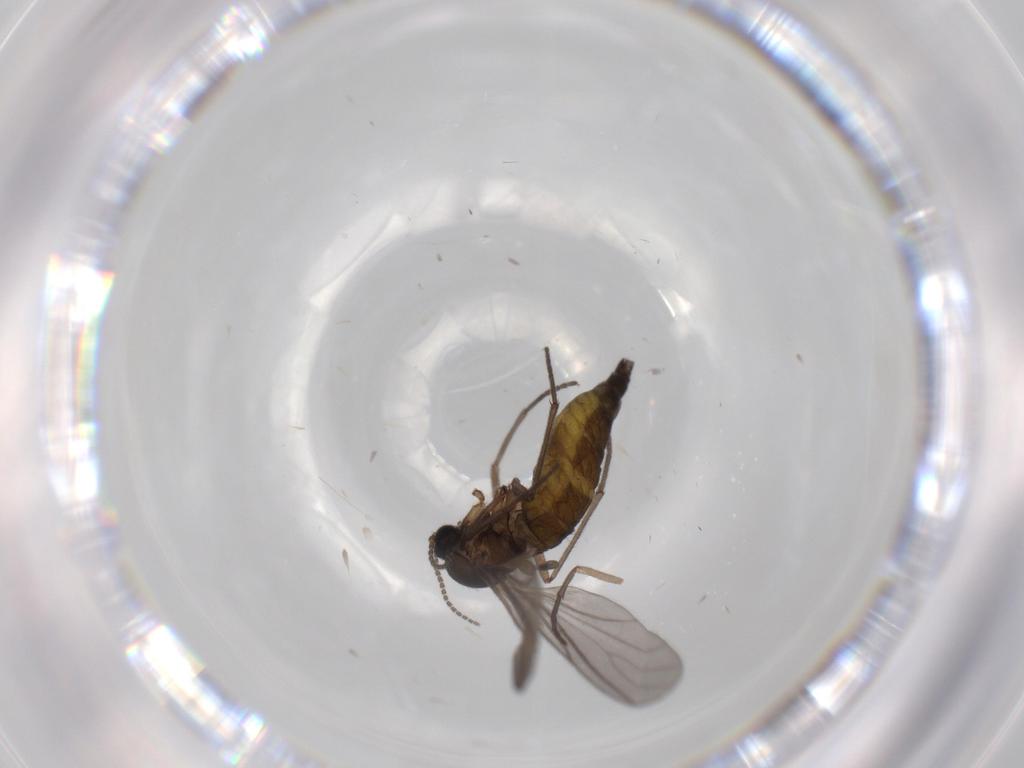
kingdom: Animalia
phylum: Arthropoda
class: Insecta
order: Diptera
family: Sciaridae
